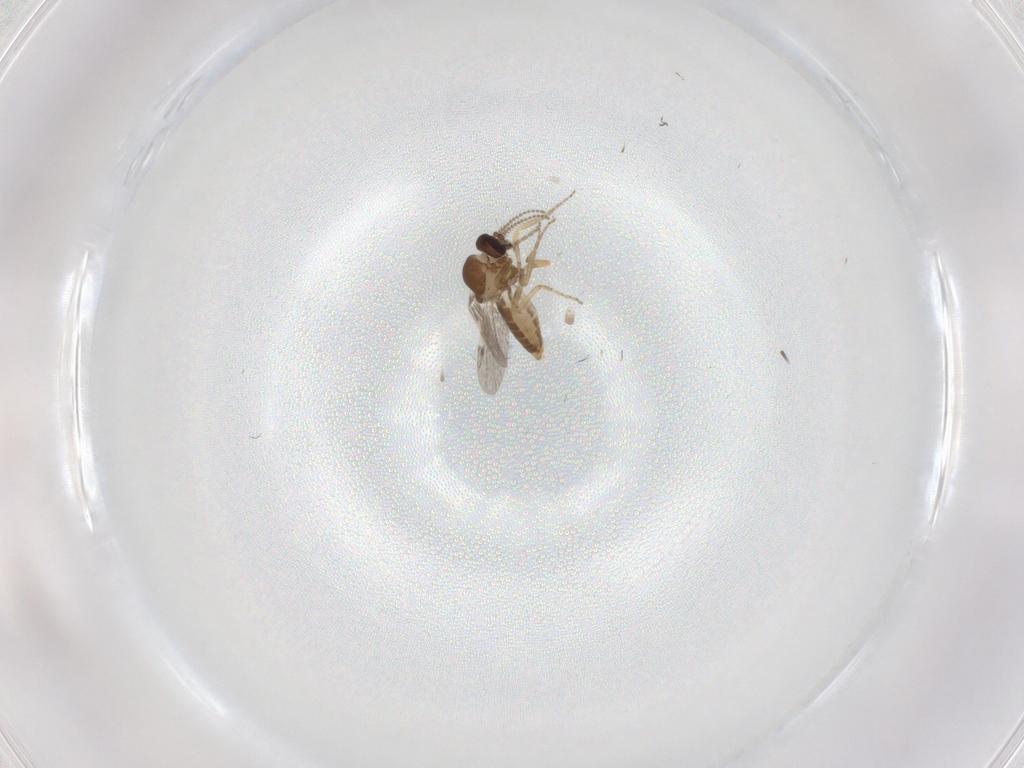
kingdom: Animalia
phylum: Arthropoda
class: Insecta
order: Diptera
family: Ceratopogonidae
